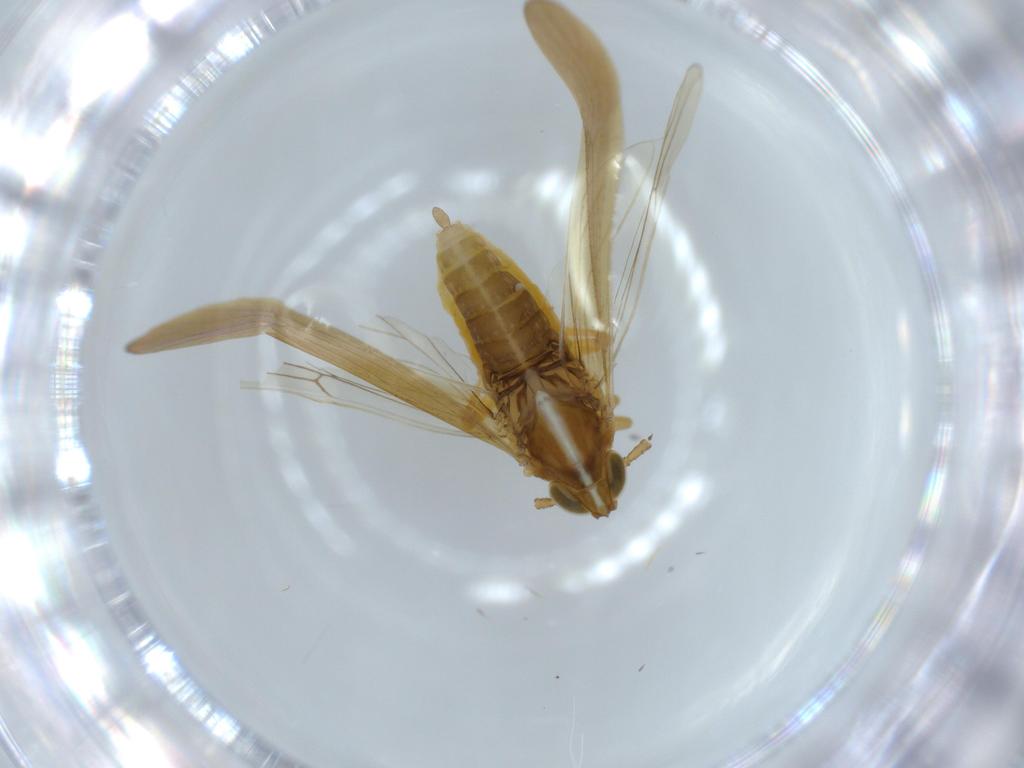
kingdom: Animalia
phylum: Arthropoda
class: Insecta
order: Hemiptera
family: Delphacidae
